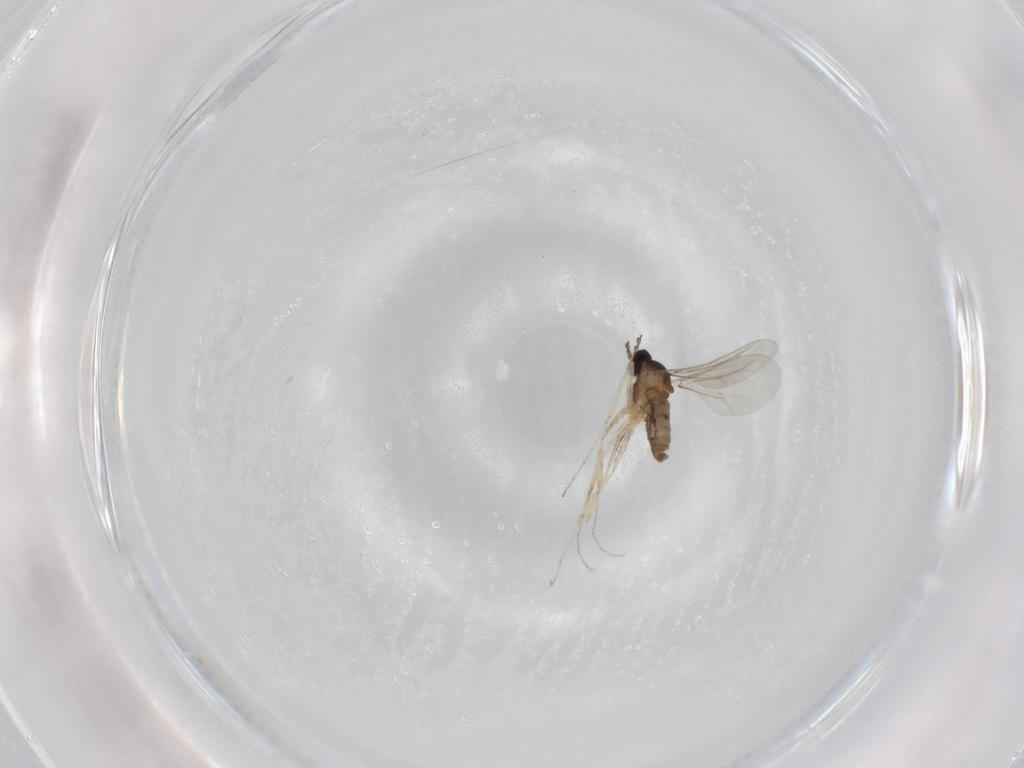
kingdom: Animalia
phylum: Arthropoda
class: Insecta
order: Diptera
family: Cecidomyiidae
